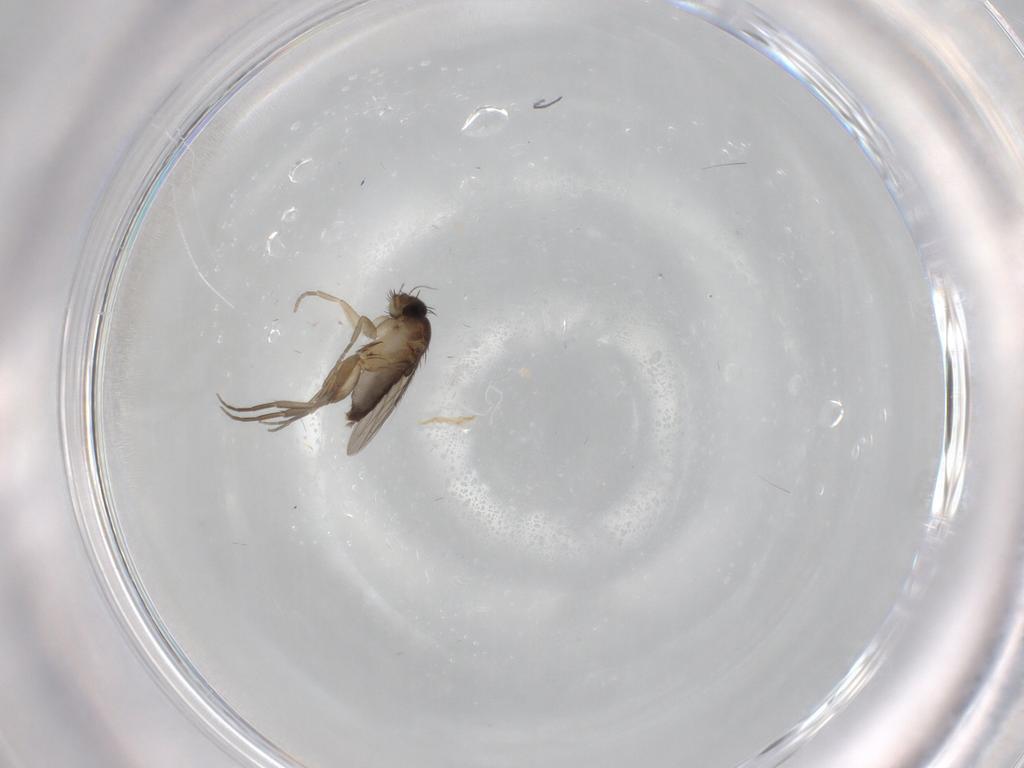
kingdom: Animalia
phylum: Arthropoda
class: Insecta
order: Diptera
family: Phoridae
